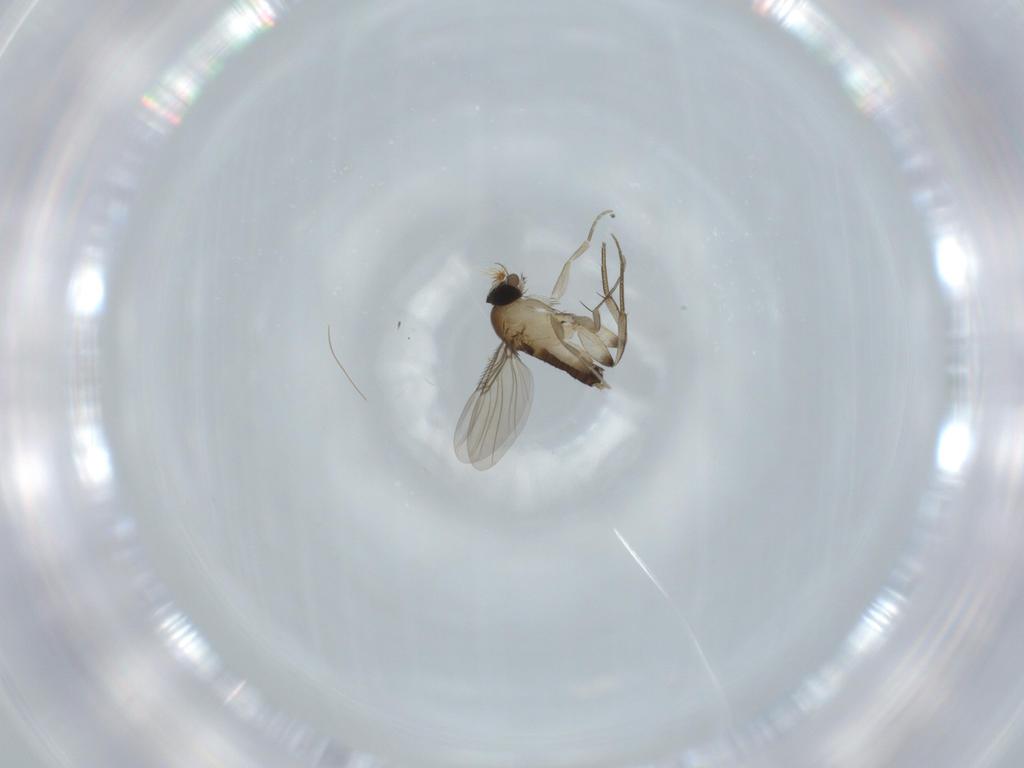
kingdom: Animalia
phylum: Arthropoda
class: Insecta
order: Diptera
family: Phoridae
